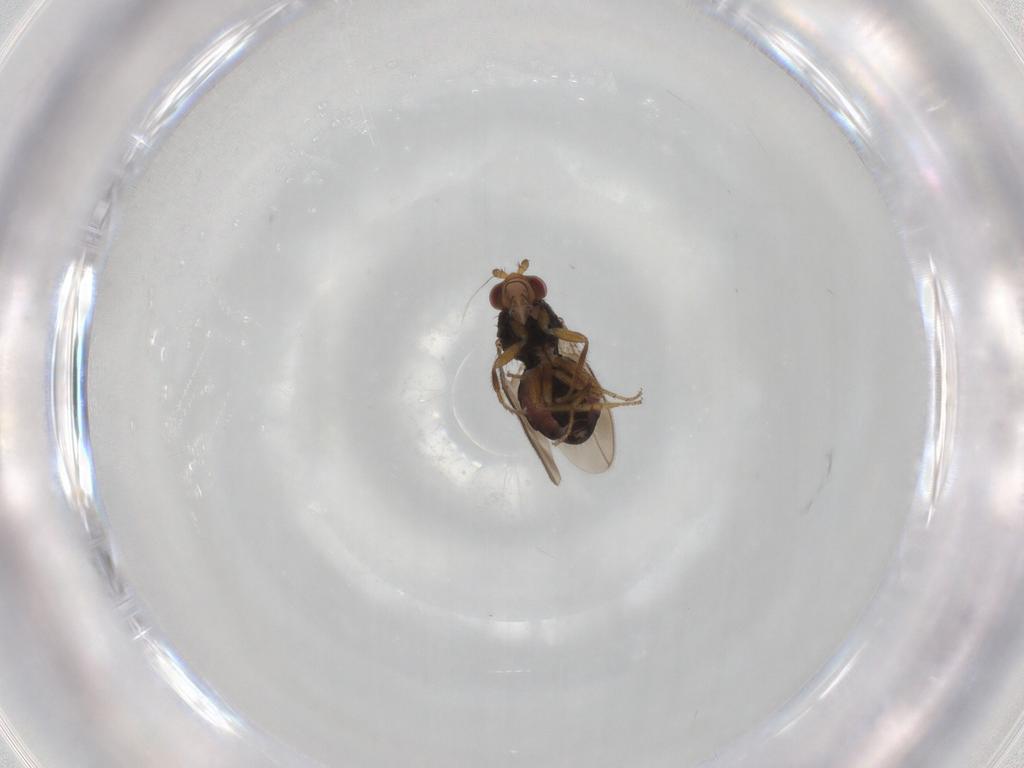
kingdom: Animalia
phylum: Arthropoda
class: Insecta
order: Diptera
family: Sphaeroceridae
